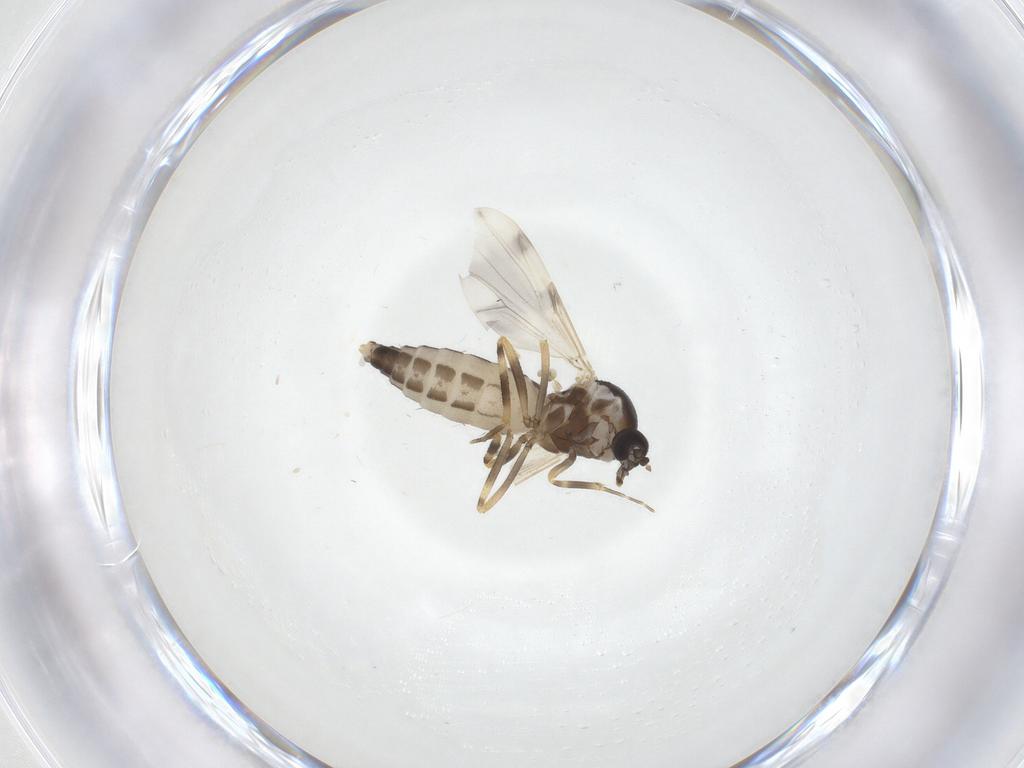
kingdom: Animalia
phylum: Arthropoda
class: Insecta
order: Diptera
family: Ceratopogonidae
